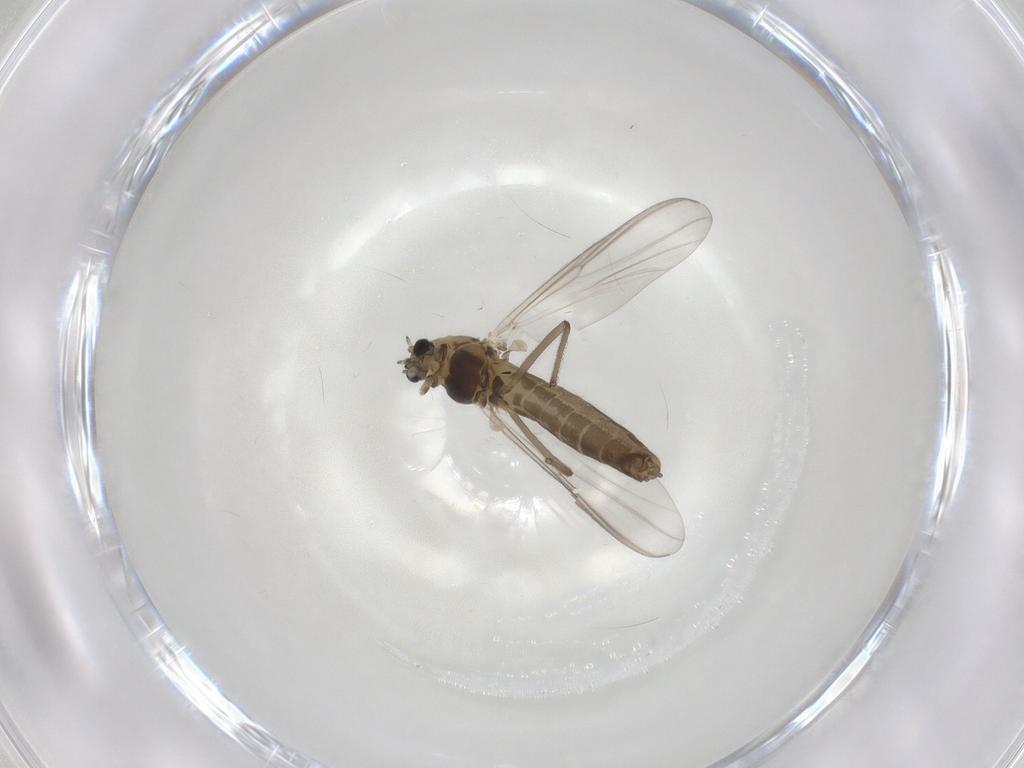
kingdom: Animalia
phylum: Arthropoda
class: Insecta
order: Diptera
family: Chironomidae
